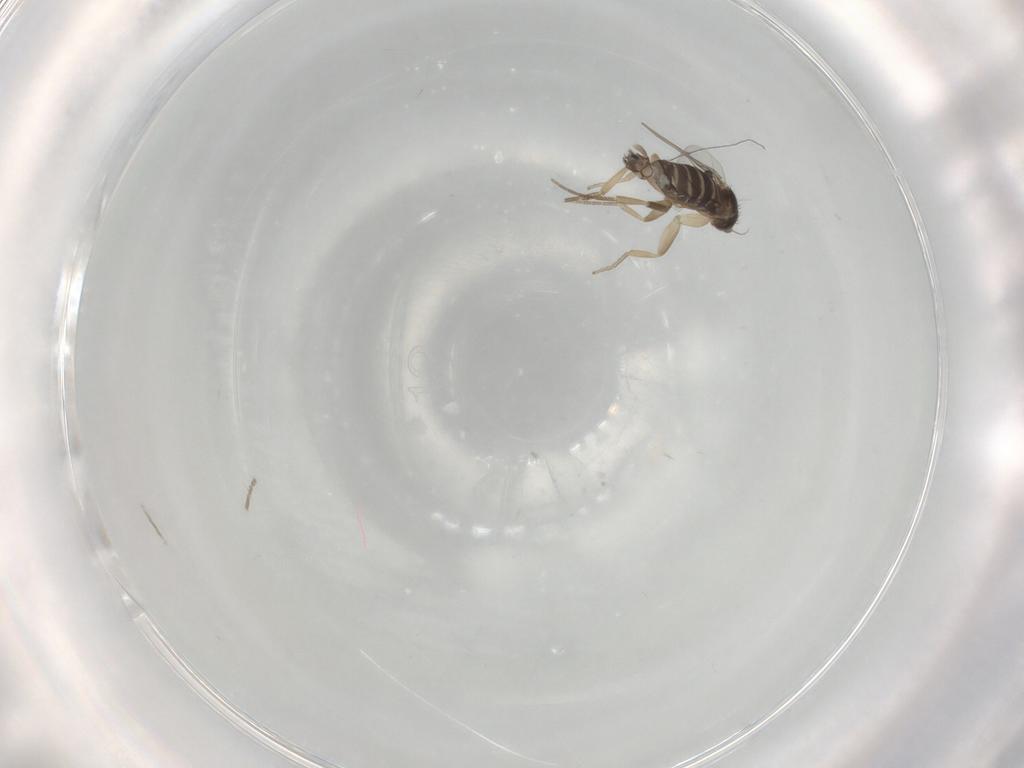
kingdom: Animalia
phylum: Arthropoda
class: Insecta
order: Diptera
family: Phoridae
